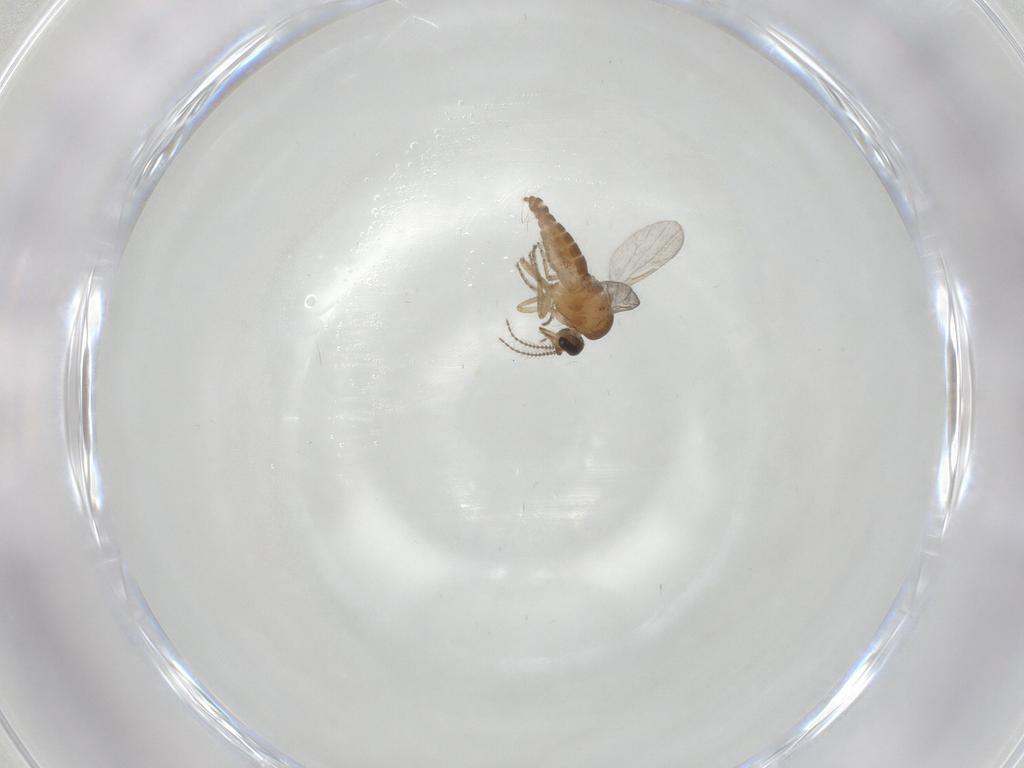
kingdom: Animalia
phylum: Arthropoda
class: Insecta
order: Diptera
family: Ceratopogonidae
